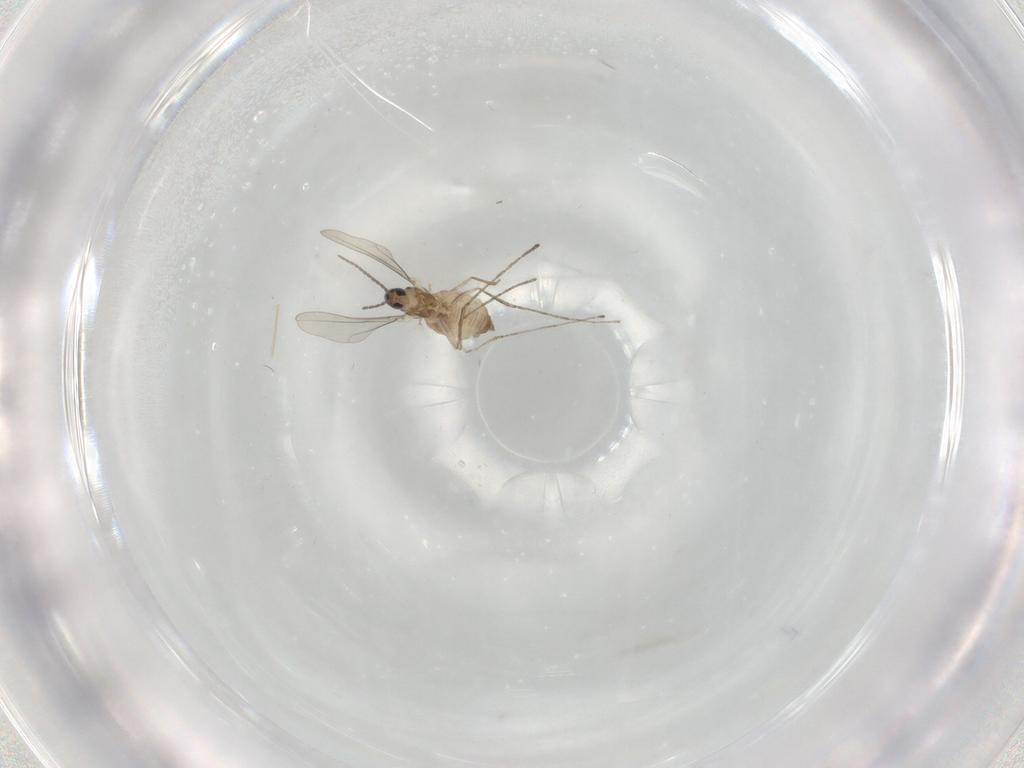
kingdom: Animalia
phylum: Arthropoda
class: Insecta
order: Diptera
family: Cecidomyiidae
